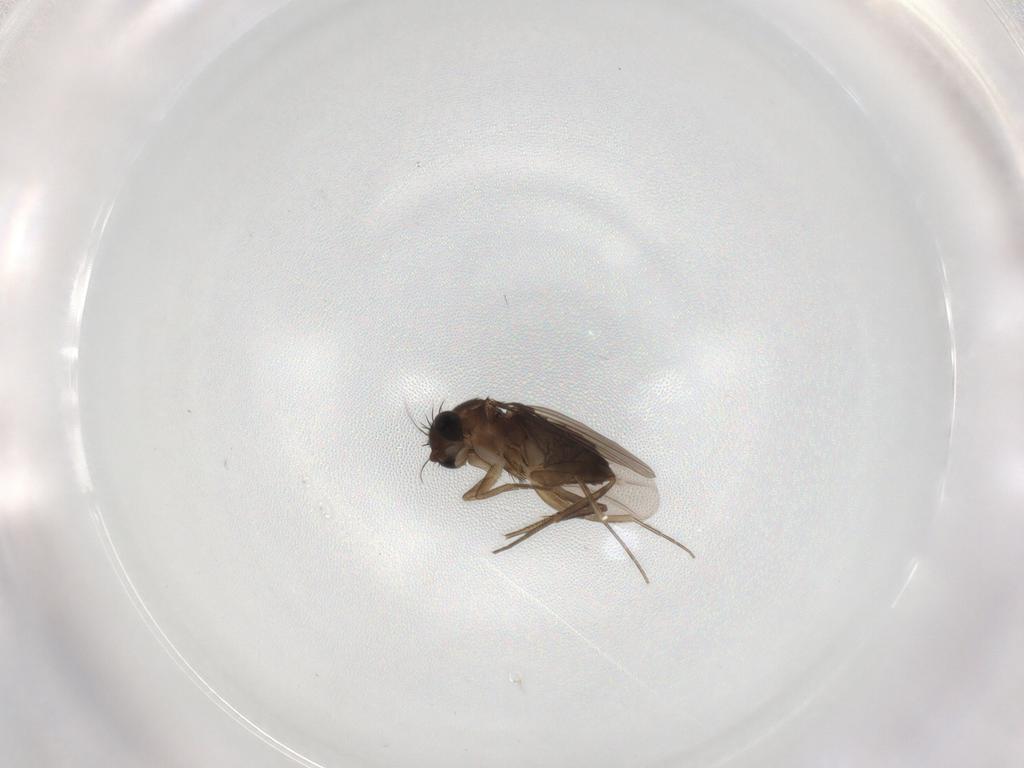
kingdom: Animalia
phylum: Arthropoda
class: Insecta
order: Diptera
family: Phoridae
